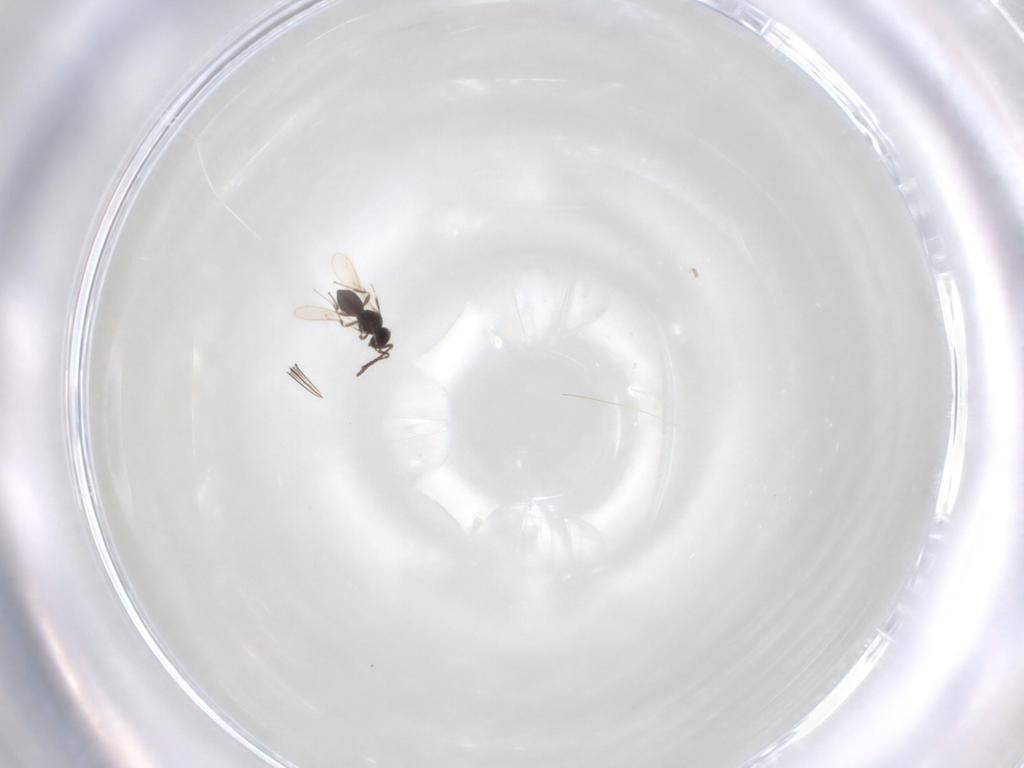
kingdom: Animalia
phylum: Arthropoda
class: Insecta
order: Hymenoptera
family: Scelionidae
